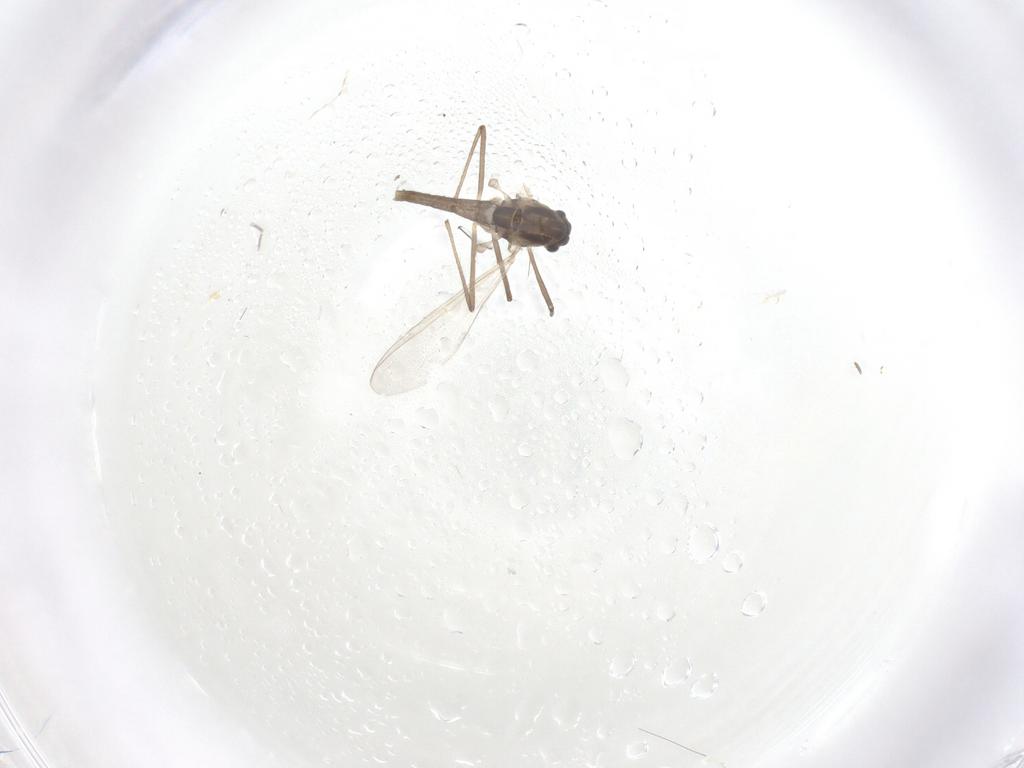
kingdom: Animalia
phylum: Arthropoda
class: Insecta
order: Diptera
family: Chironomidae
